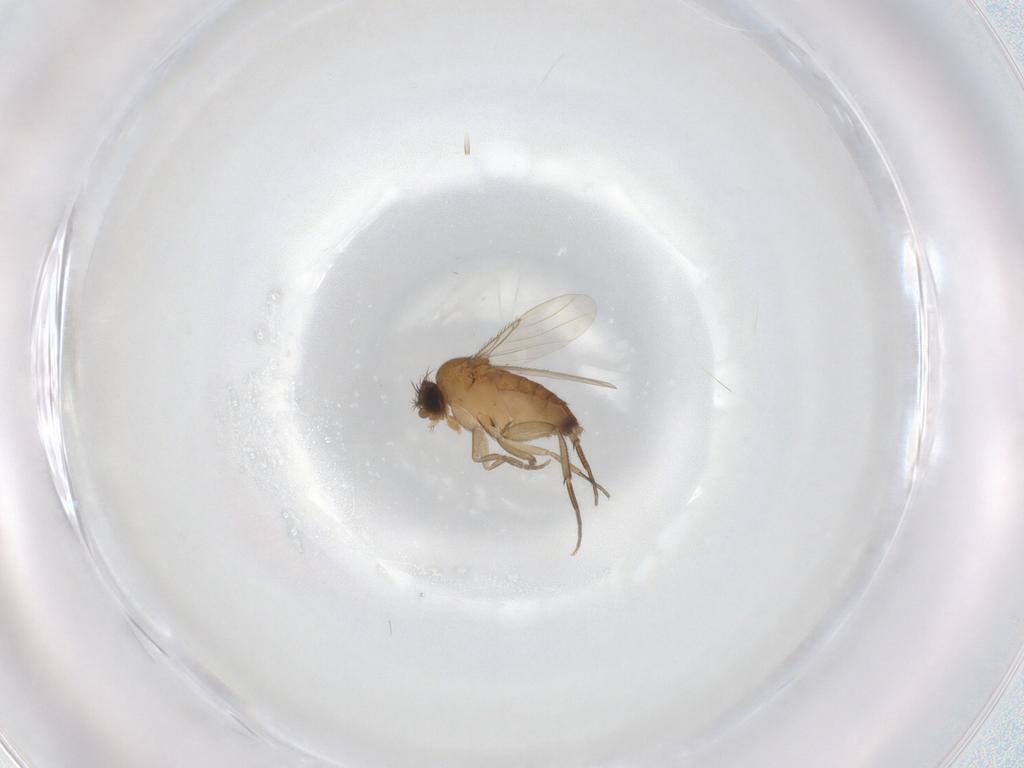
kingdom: Animalia
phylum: Arthropoda
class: Insecta
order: Diptera
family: Phoridae
